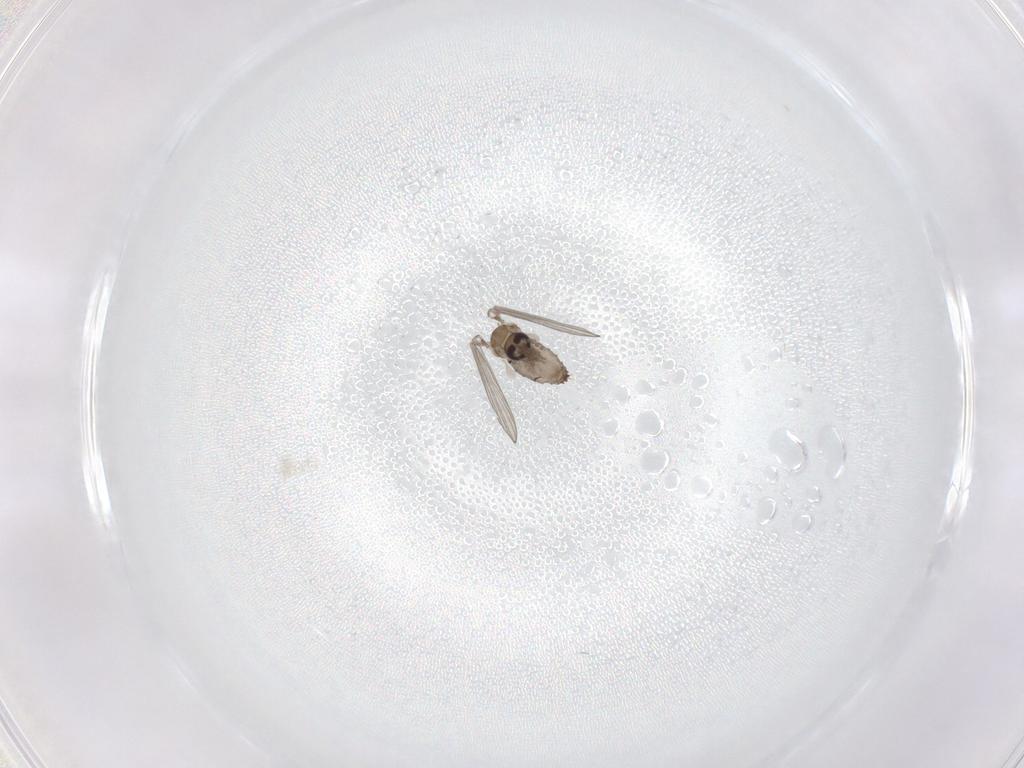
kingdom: Animalia
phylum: Arthropoda
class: Insecta
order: Diptera
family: Psychodidae
